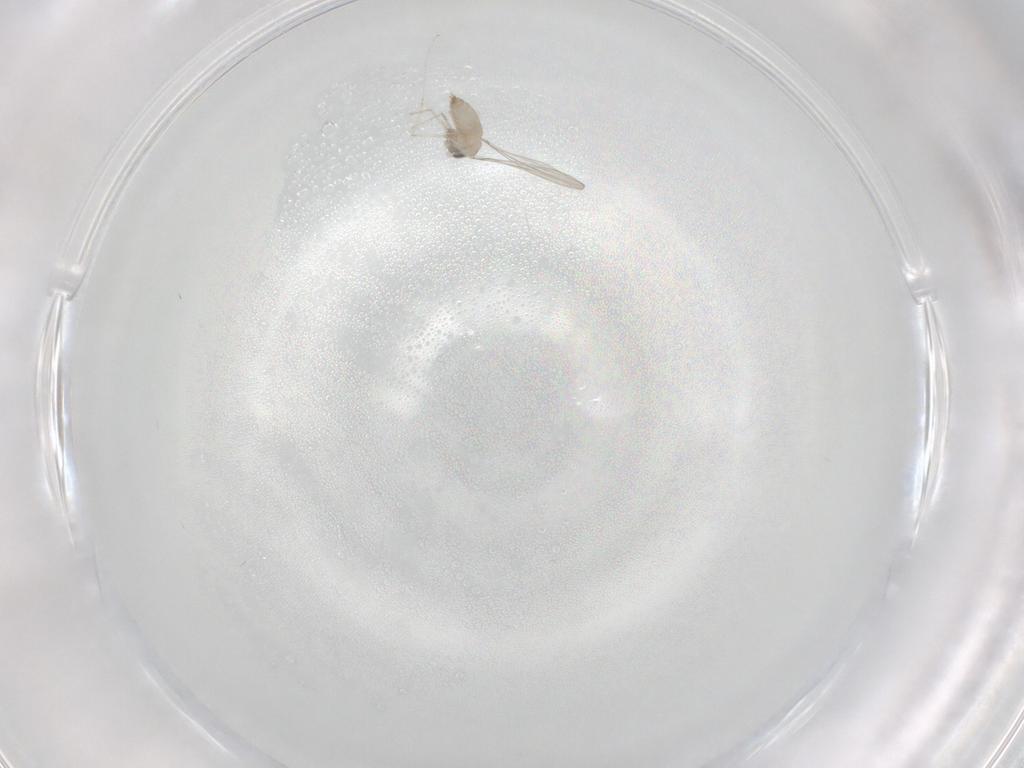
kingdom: Animalia
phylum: Arthropoda
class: Insecta
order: Diptera
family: Cecidomyiidae
